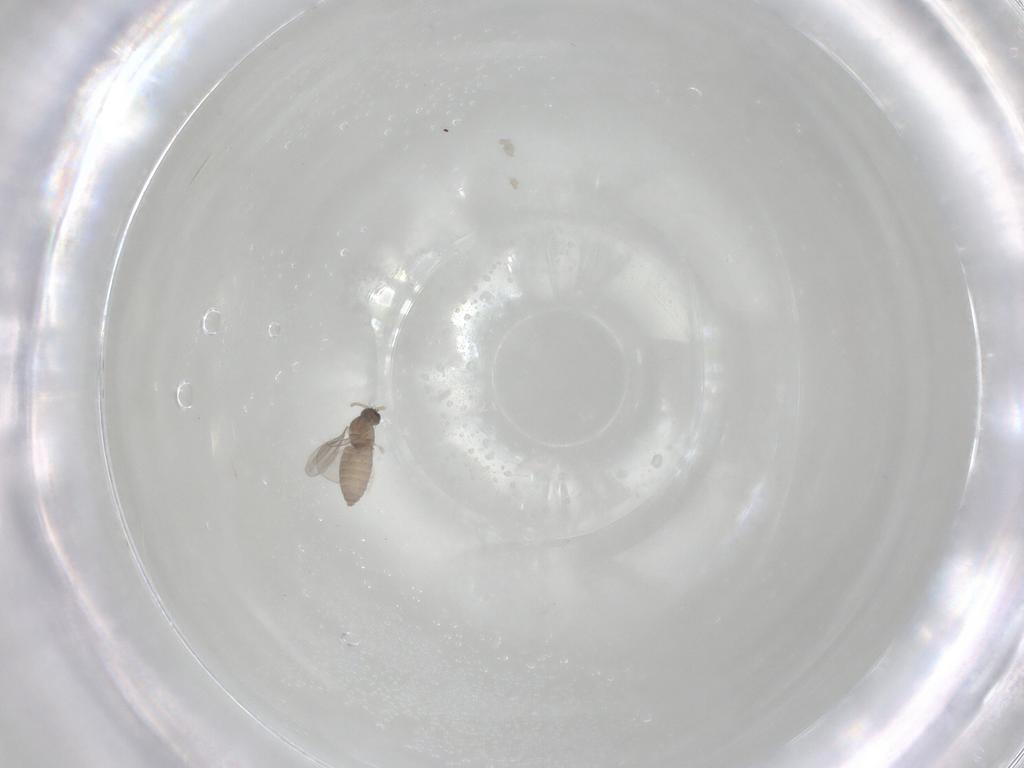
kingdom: Animalia
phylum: Arthropoda
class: Insecta
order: Diptera
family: Cecidomyiidae
